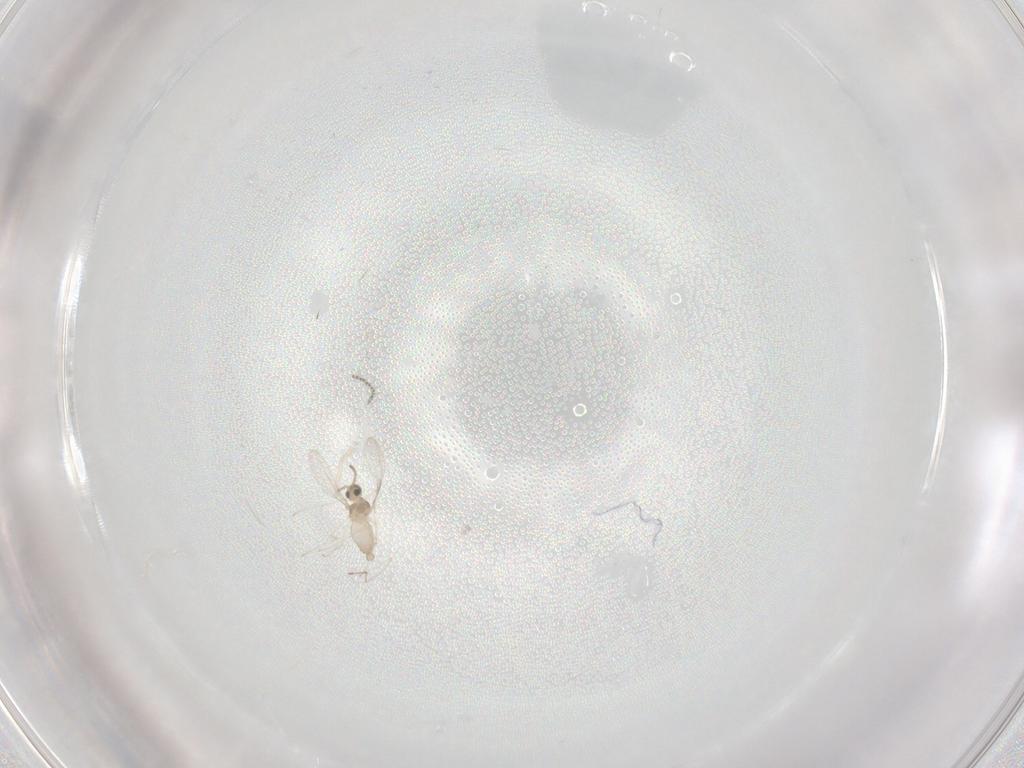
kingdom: Animalia
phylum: Arthropoda
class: Insecta
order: Diptera
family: Cecidomyiidae
